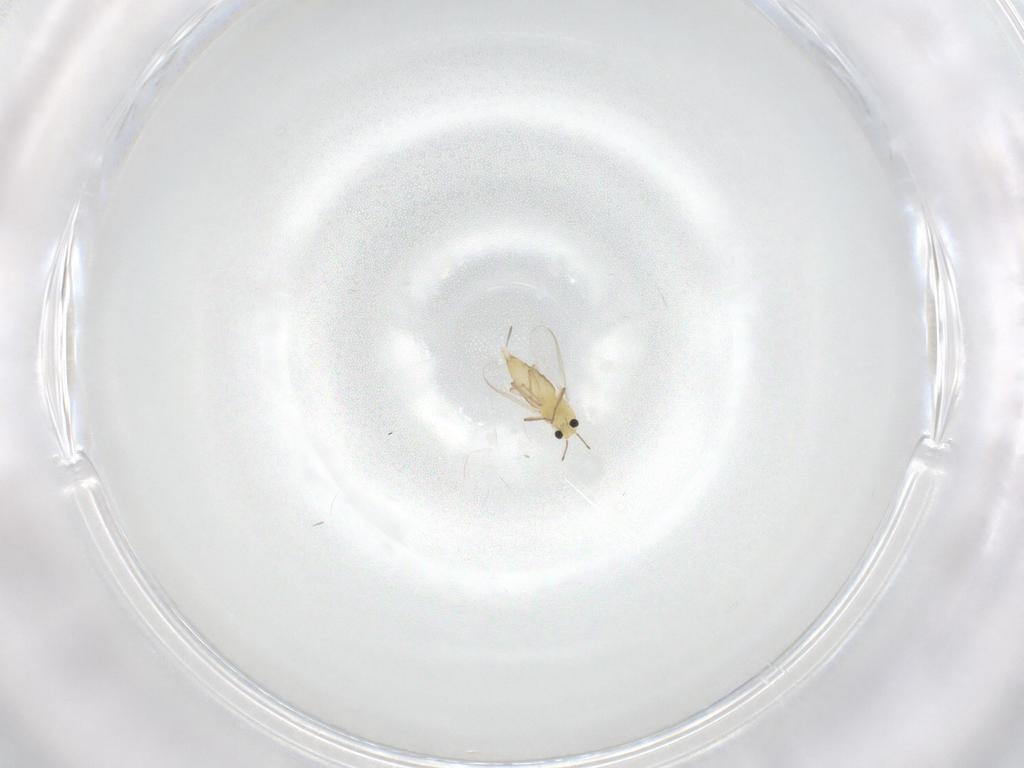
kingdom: Animalia
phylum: Arthropoda
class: Insecta
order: Diptera
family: Chironomidae
